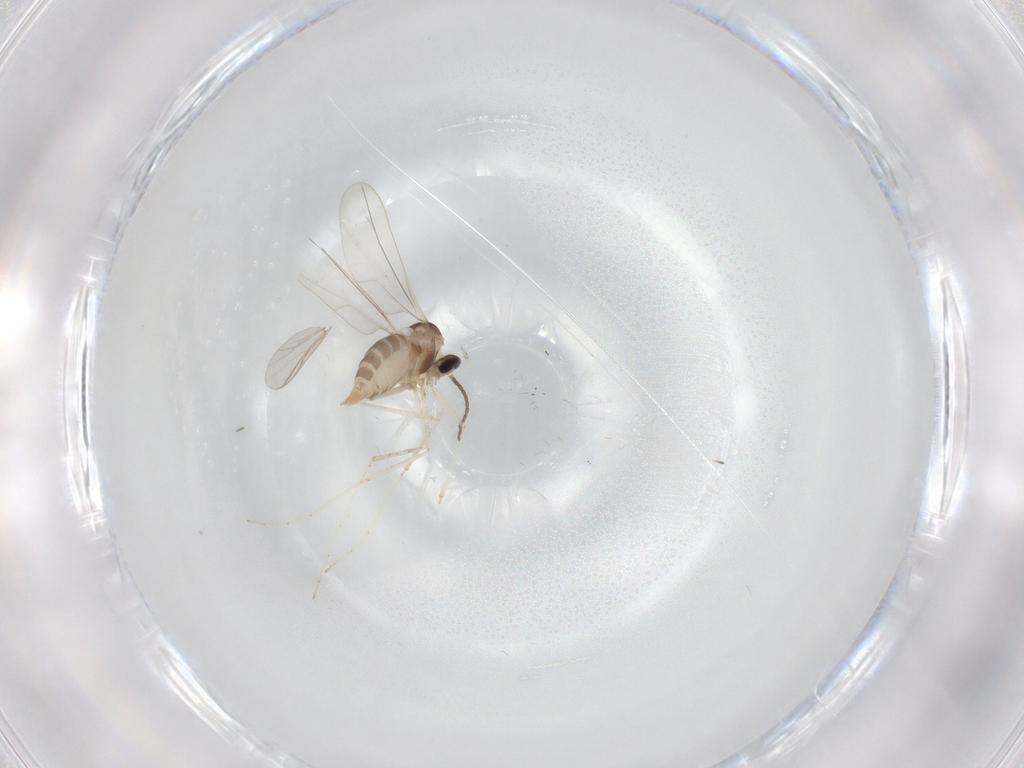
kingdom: Animalia
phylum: Arthropoda
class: Insecta
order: Diptera
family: Cecidomyiidae
